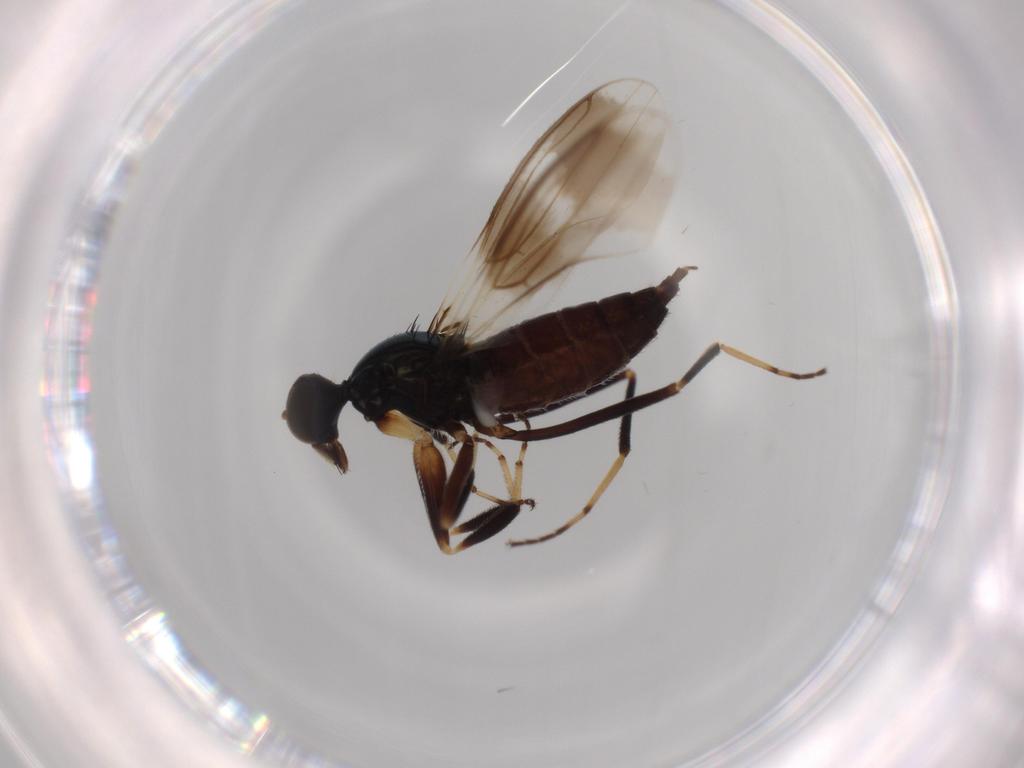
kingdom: Animalia
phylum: Arthropoda
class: Insecta
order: Diptera
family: Hybotidae
